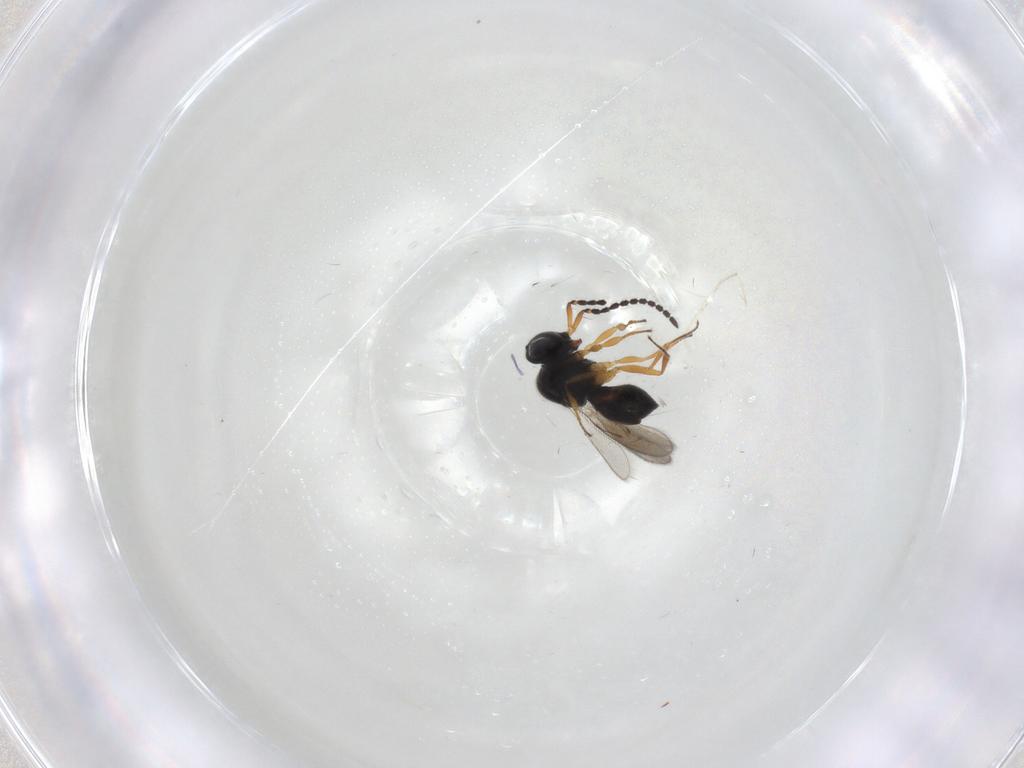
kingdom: Animalia
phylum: Arthropoda
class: Insecta
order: Hymenoptera
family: Scelionidae
